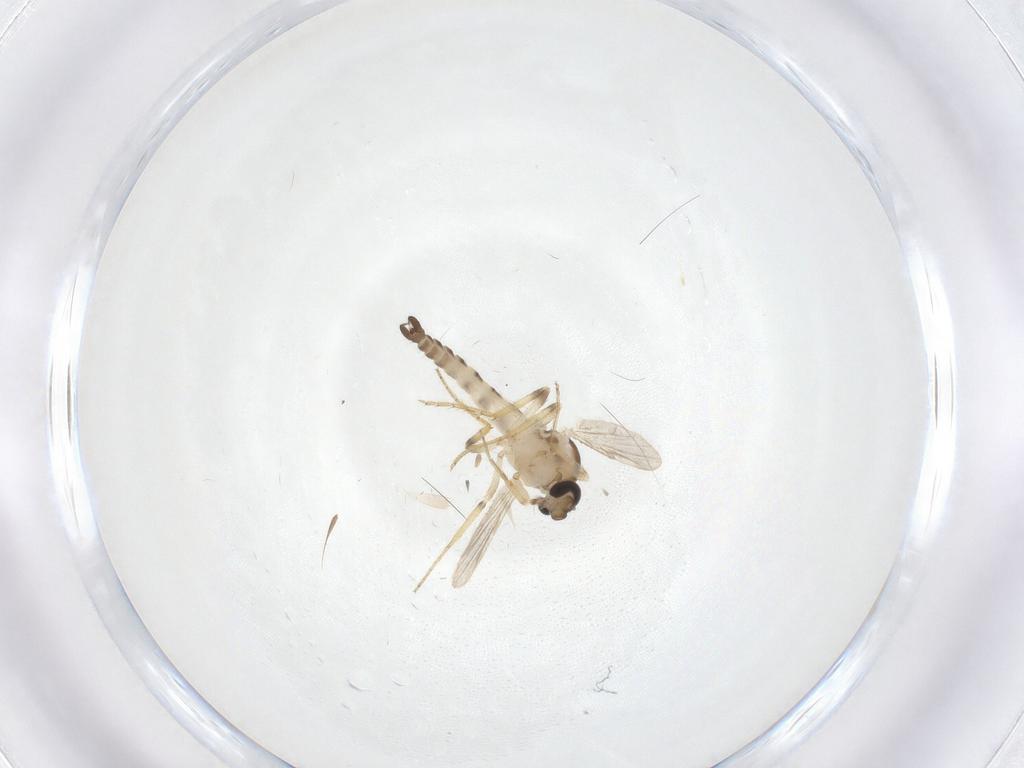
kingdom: Animalia
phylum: Arthropoda
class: Insecta
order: Diptera
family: Ceratopogonidae
